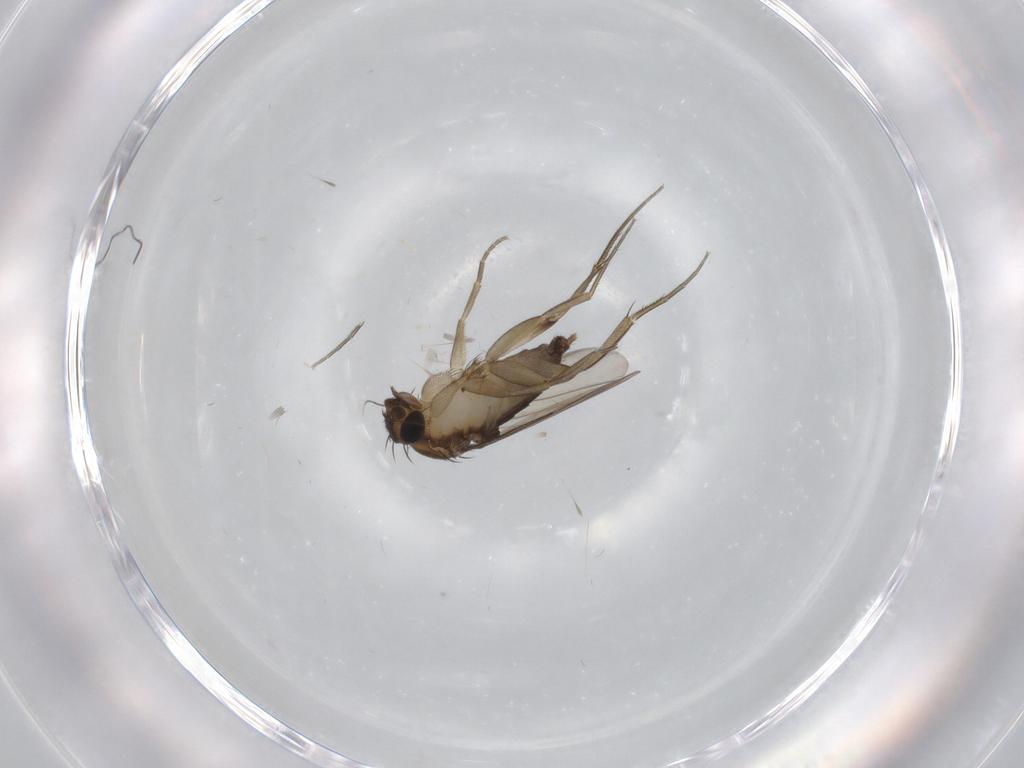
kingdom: Animalia
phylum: Arthropoda
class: Insecta
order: Diptera
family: Phoridae
